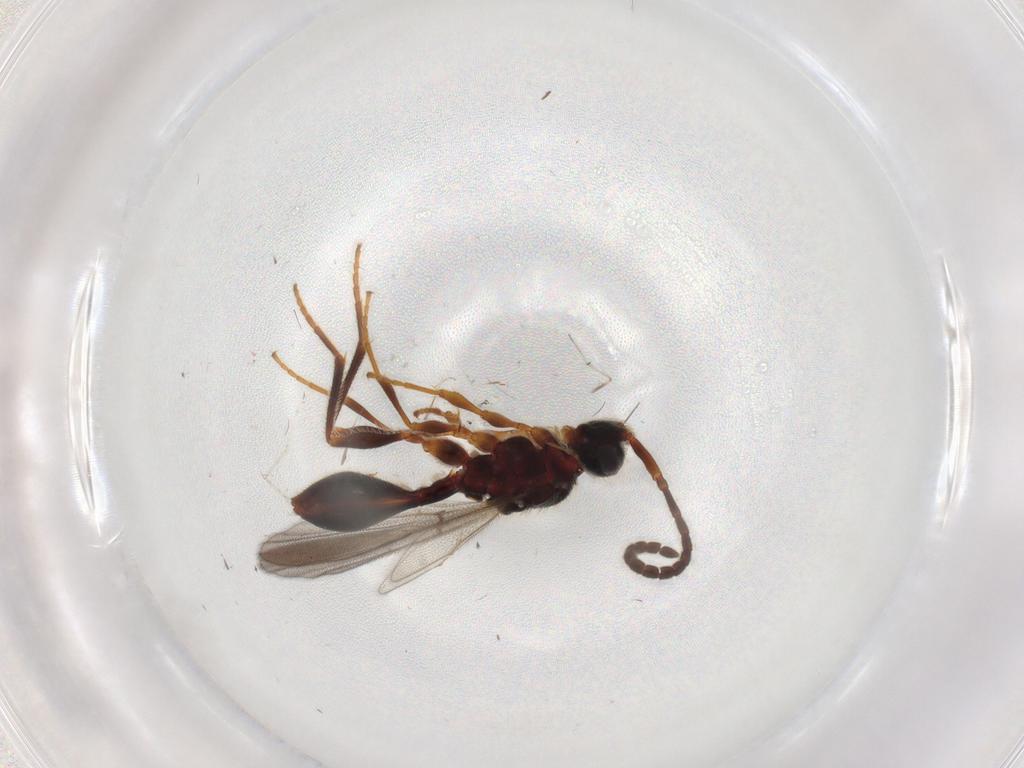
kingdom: Animalia
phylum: Arthropoda
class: Insecta
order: Hymenoptera
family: Diapriidae
